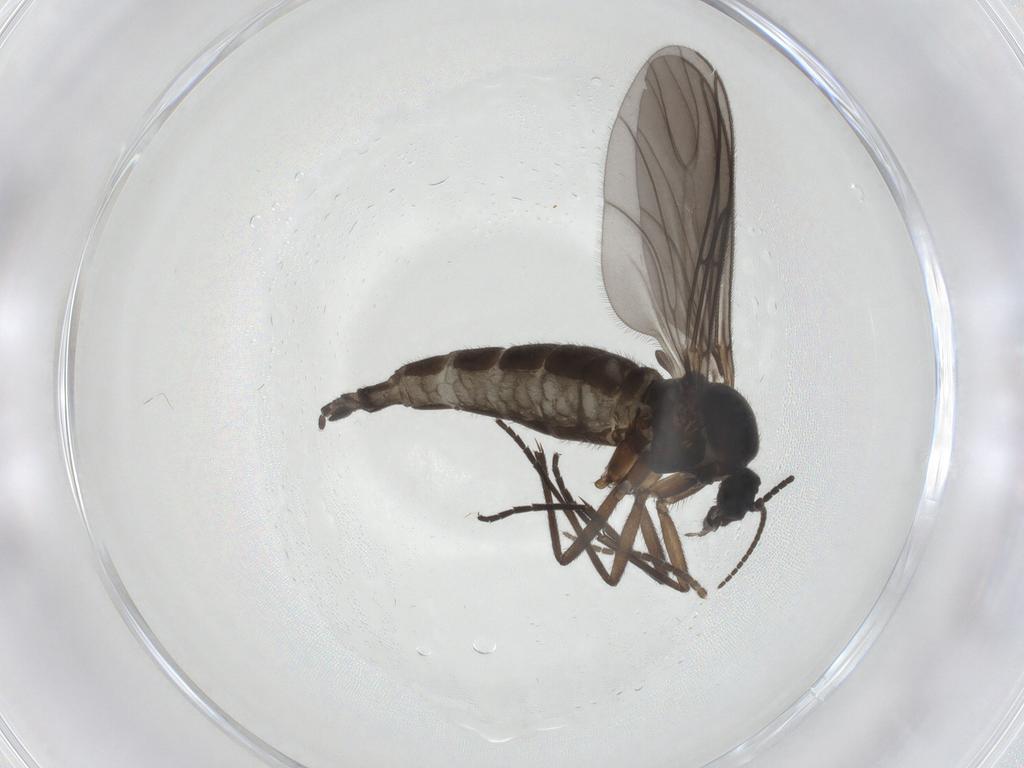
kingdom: Animalia
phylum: Arthropoda
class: Insecta
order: Diptera
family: Sciaridae
